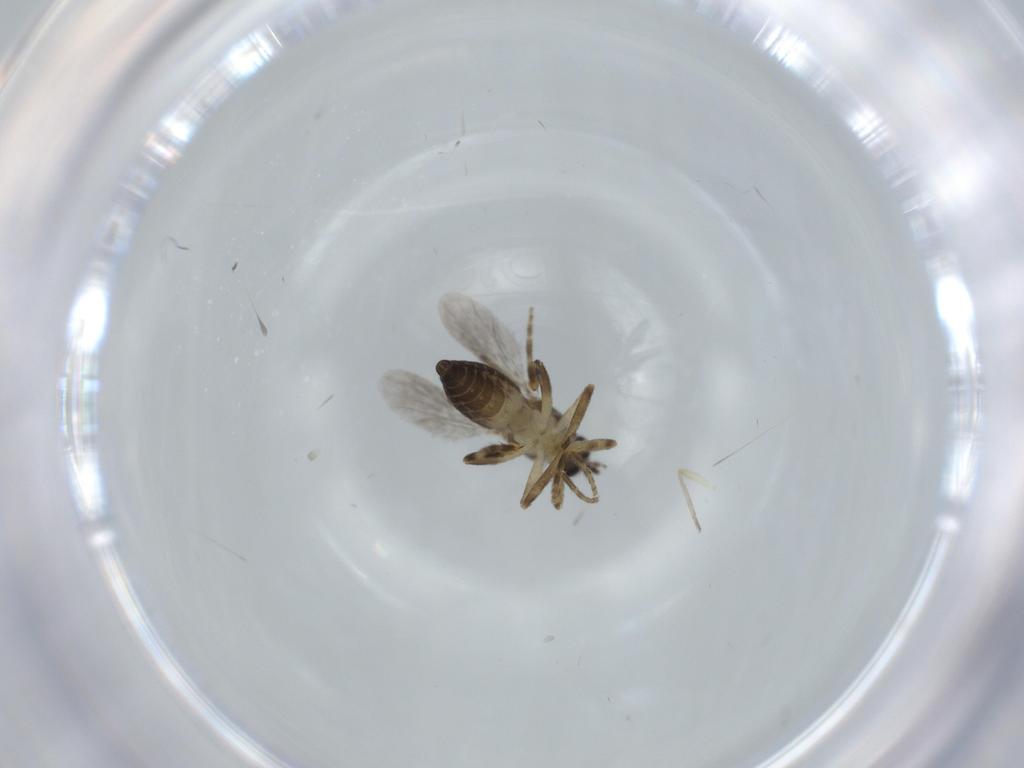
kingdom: Animalia
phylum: Arthropoda
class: Insecta
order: Diptera
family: Ceratopogonidae
